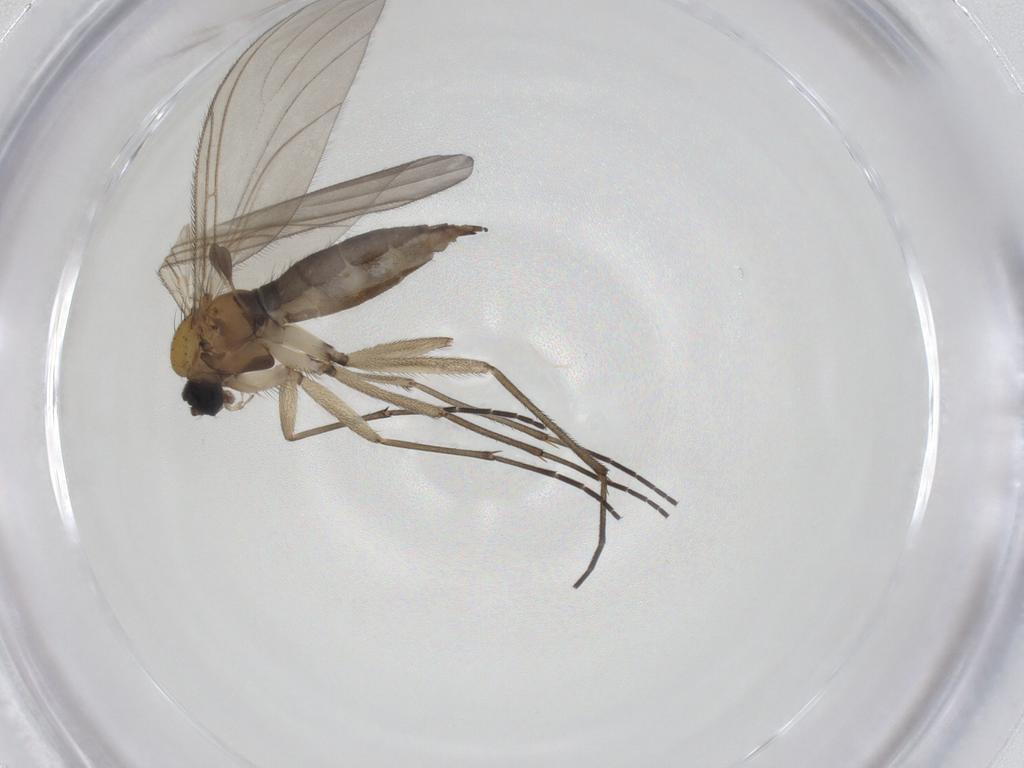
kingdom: Animalia
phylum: Arthropoda
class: Insecta
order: Diptera
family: Sciaridae
